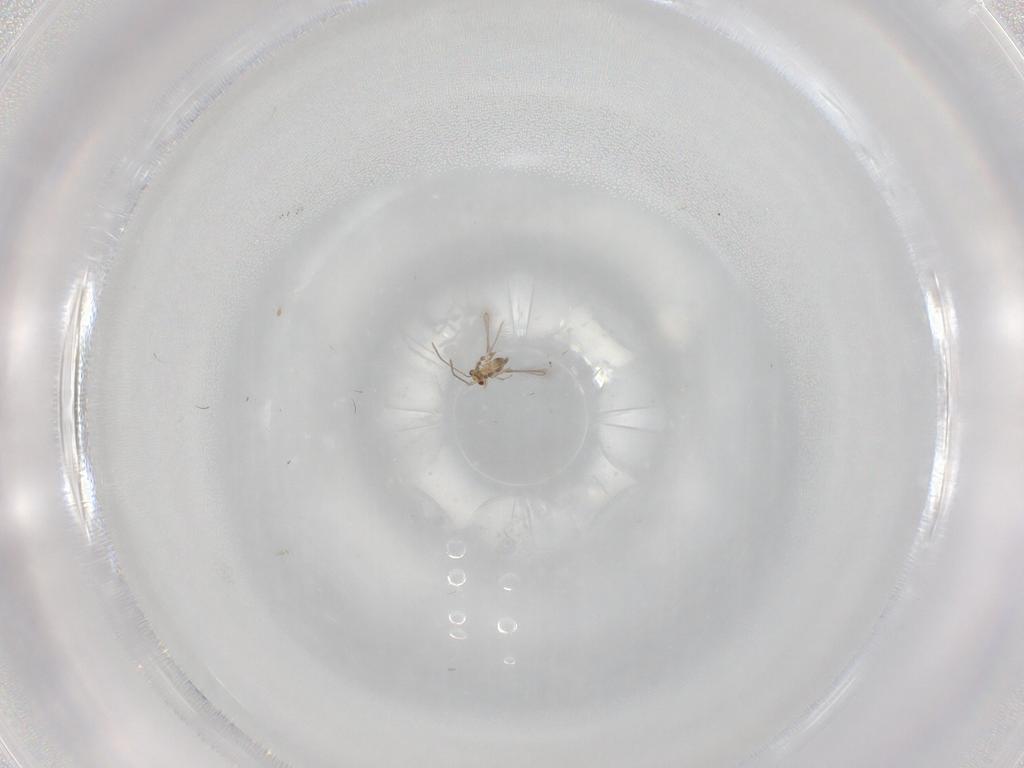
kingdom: Animalia
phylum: Arthropoda
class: Insecta
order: Hymenoptera
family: Mymaridae
